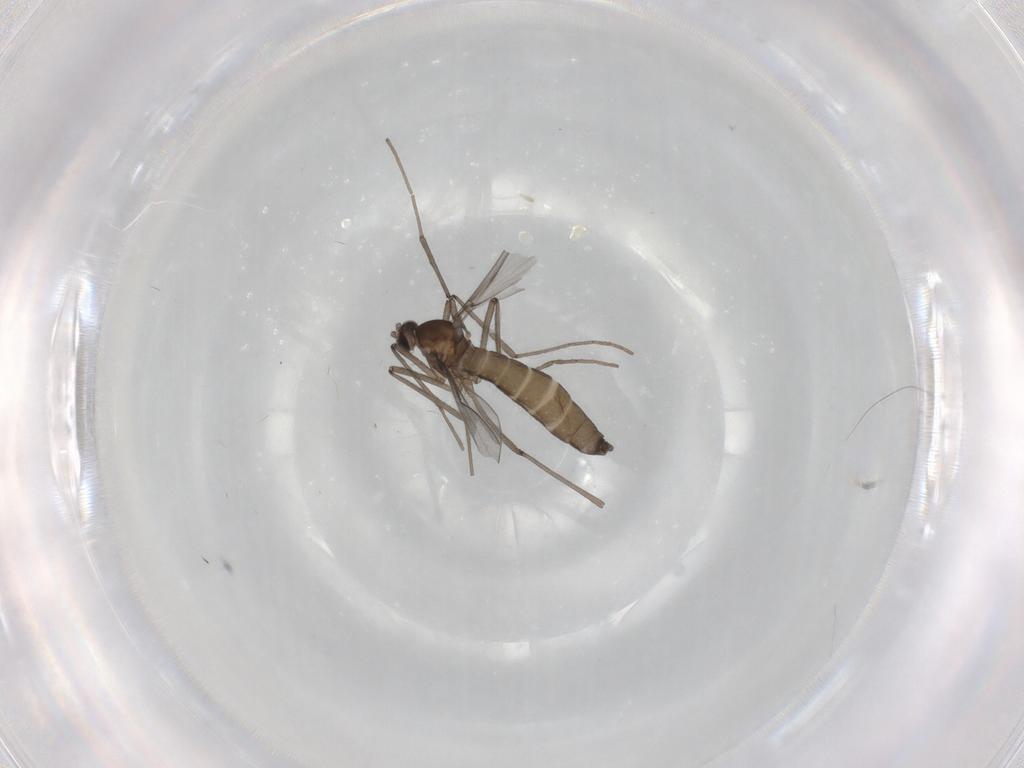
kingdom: Animalia
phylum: Arthropoda
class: Insecta
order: Diptera
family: Cecidomyiidae
